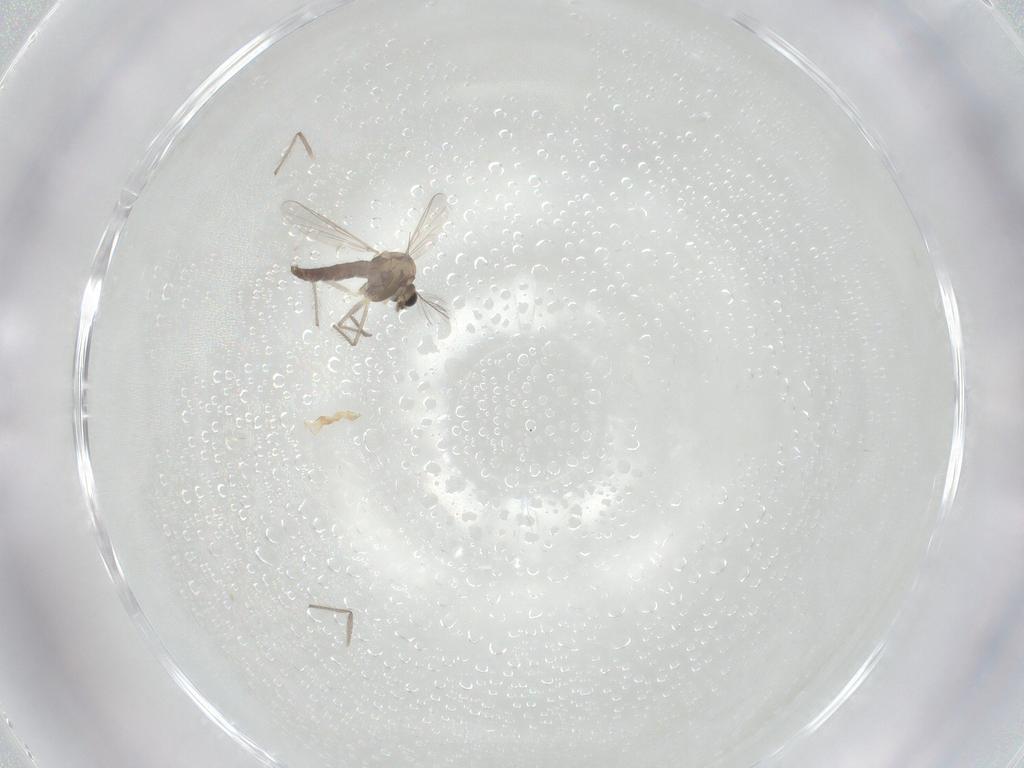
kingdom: Animalia
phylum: Arthropoda
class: Insecta
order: Diptera
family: Chironomidae
